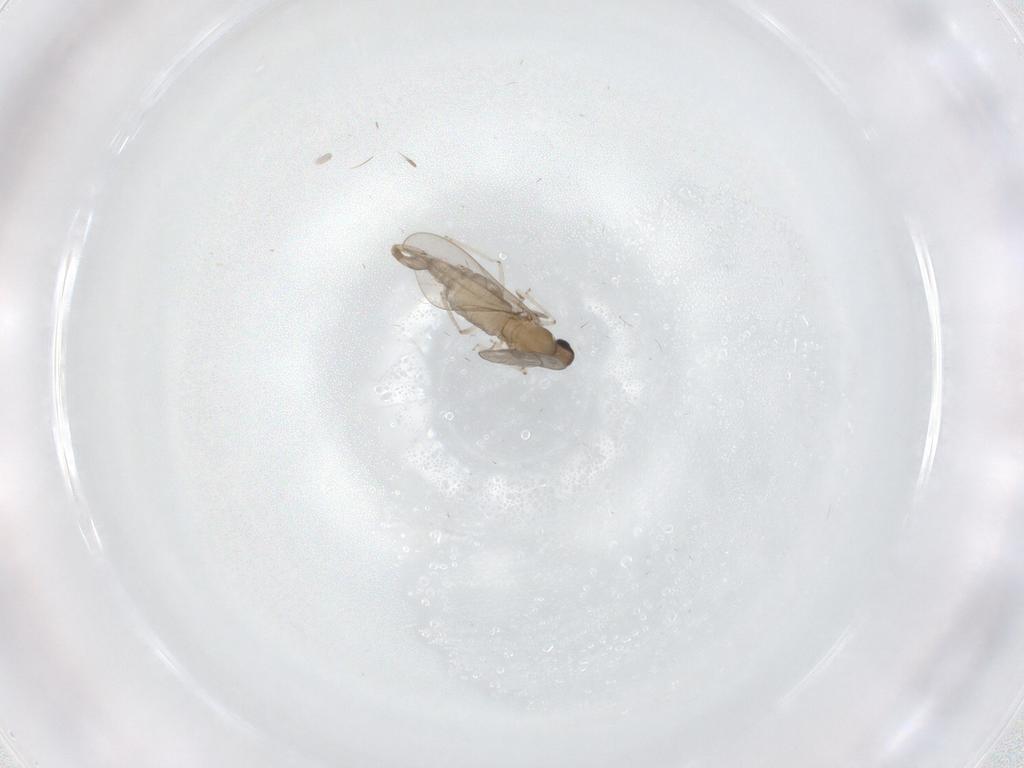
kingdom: Animalia
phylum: Arthropoda
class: Insecta
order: Diptera
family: Cecidomyiidae
